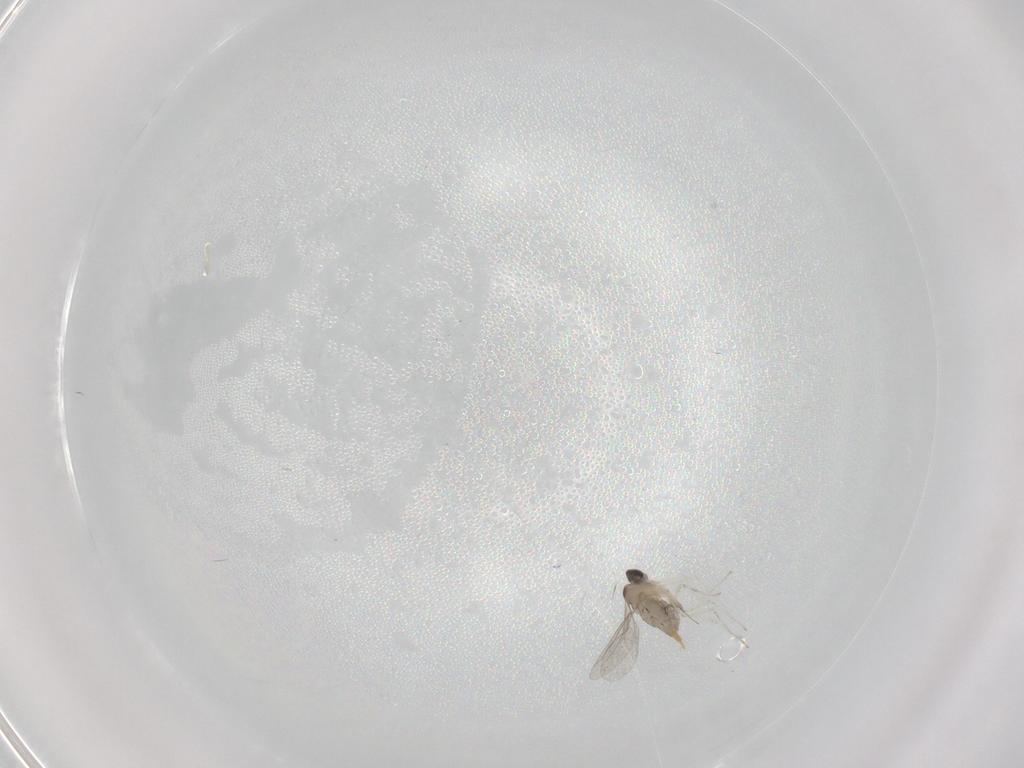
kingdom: Animalia
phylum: Arthropoda
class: Insecta
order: Diptera
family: Cecidomyiidae
